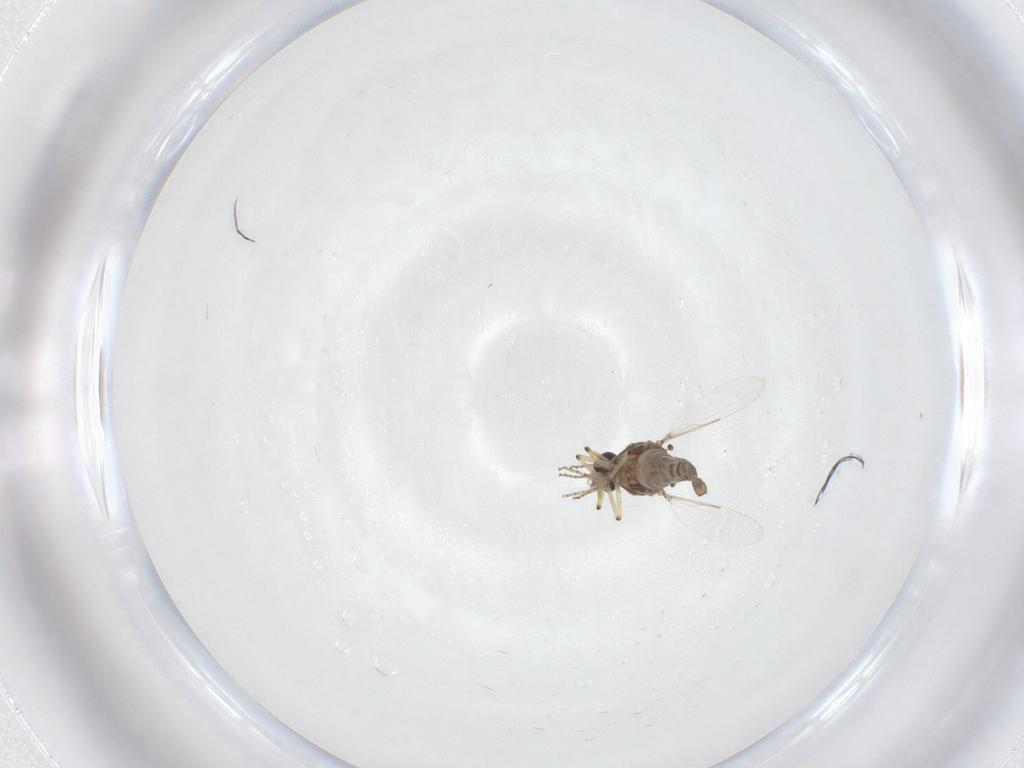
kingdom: Animalia
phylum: Arthropoda
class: Insecta
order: Diptera
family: Ceratopogonidae
